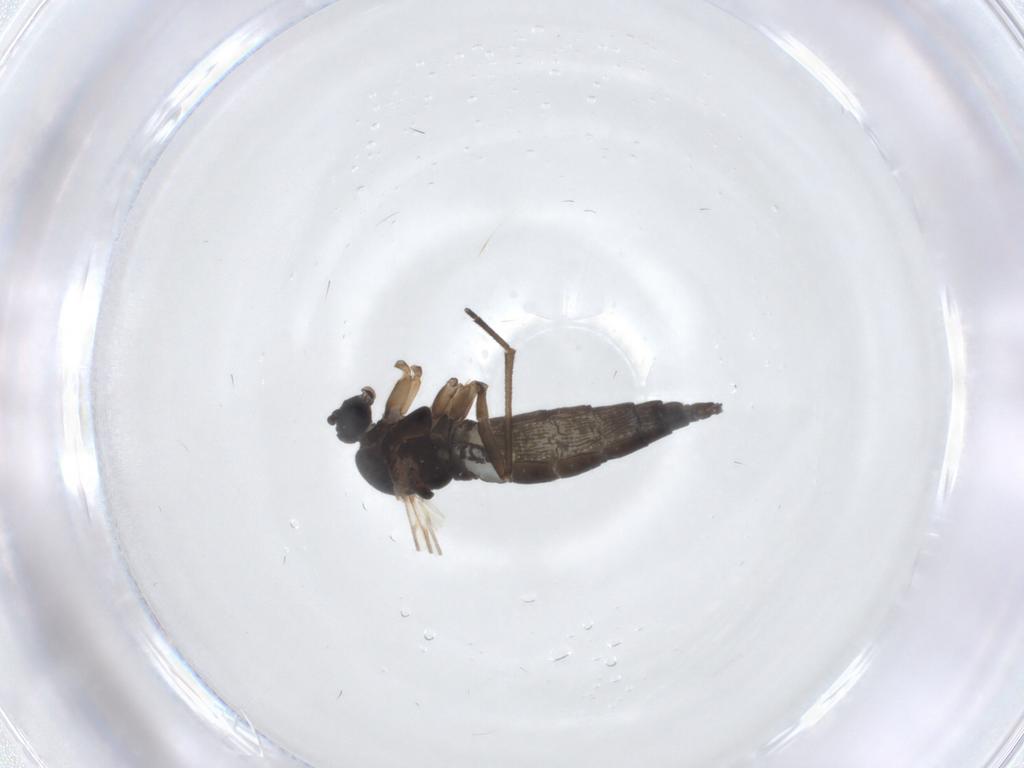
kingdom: Animalia
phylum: Arthropoda
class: Insecta
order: Diptera
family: Sciaridae
